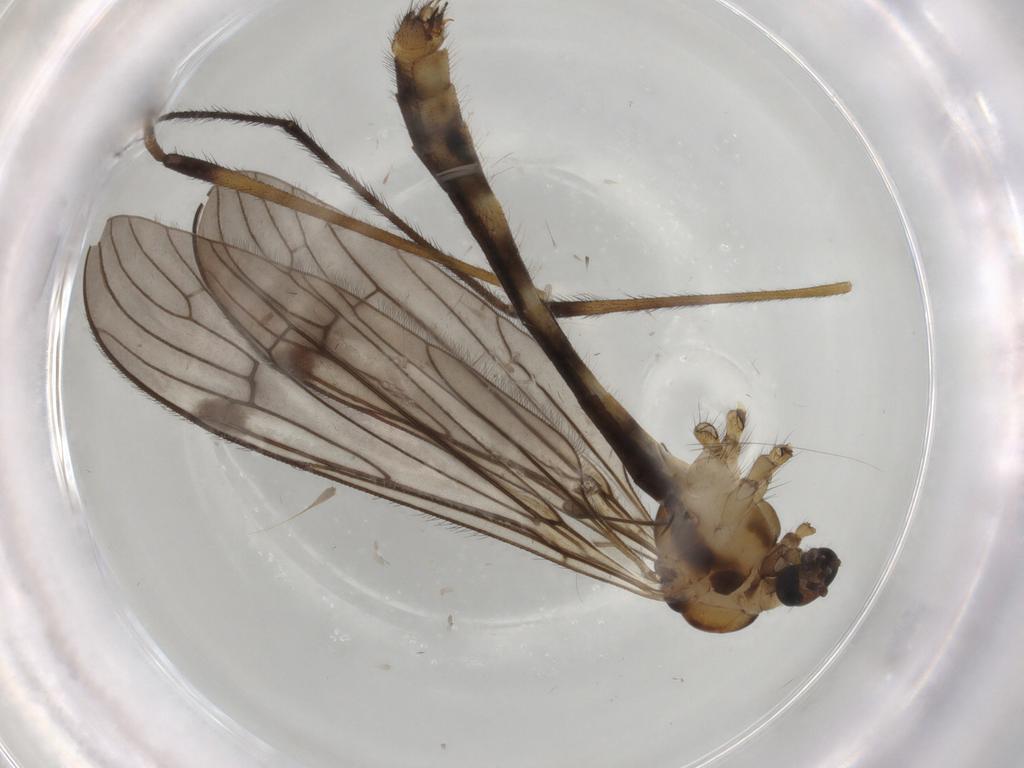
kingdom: Animalia
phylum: Arthropoda
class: Insecta
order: Diptera
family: Limoniidae
